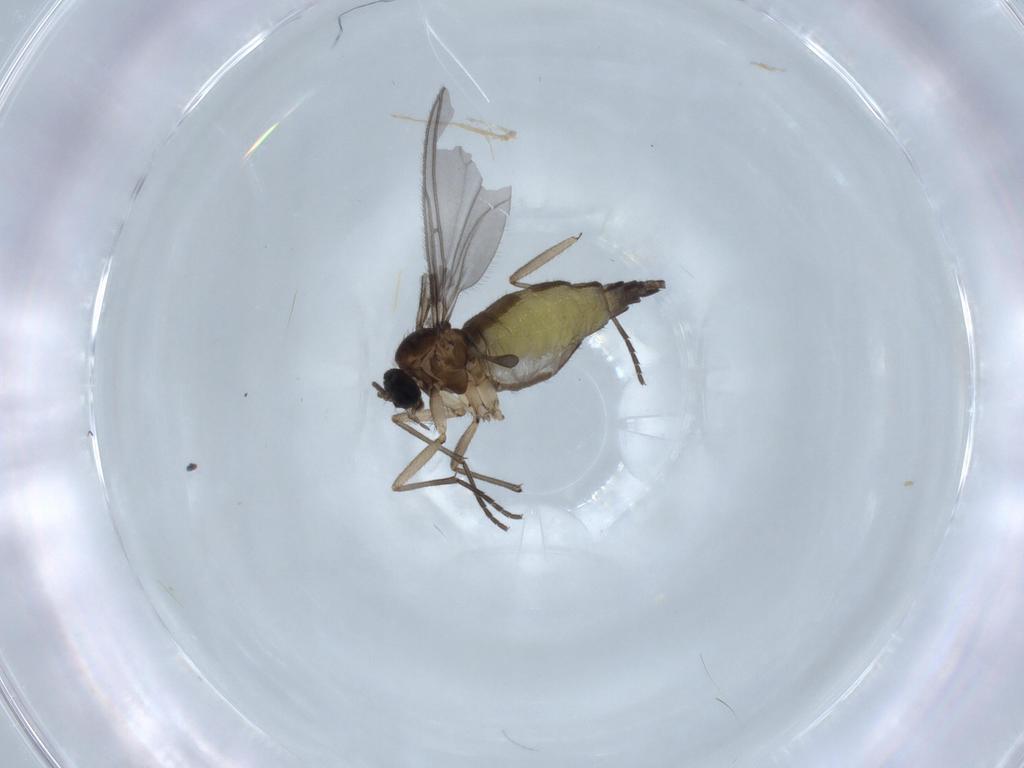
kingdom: Animalia
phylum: Arthropoda
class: Insecta
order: Diptera
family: Sciaridae
